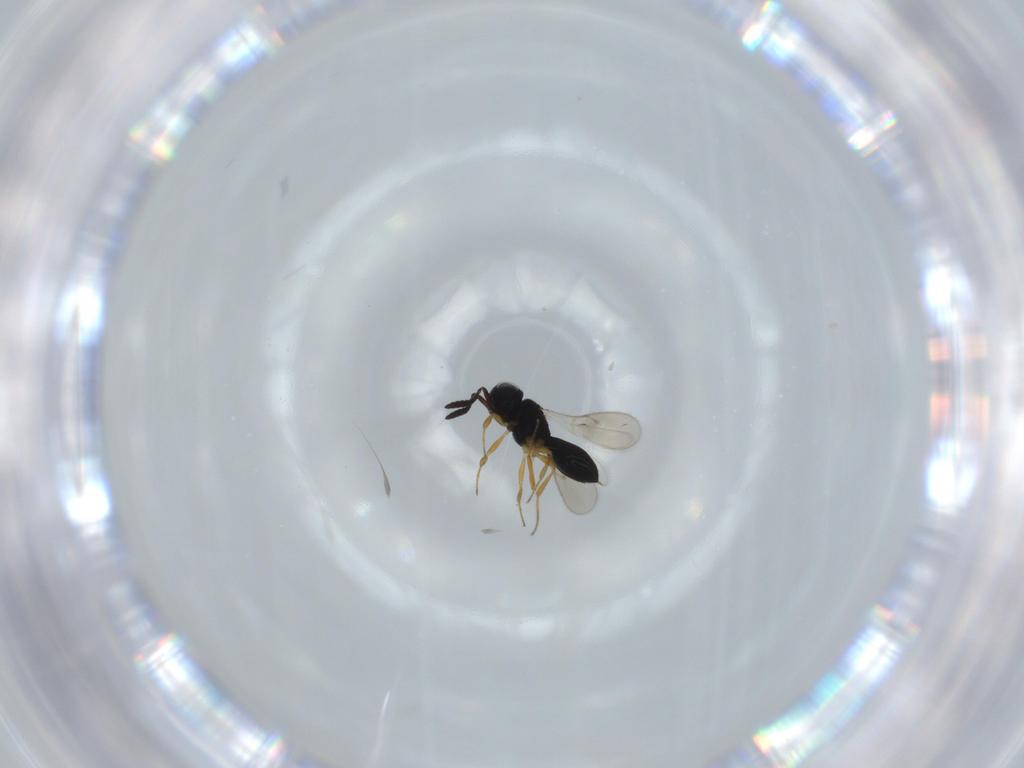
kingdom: Animalia
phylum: Arthropoda
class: Insecta
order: Hymenoptera
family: Scelionidae
